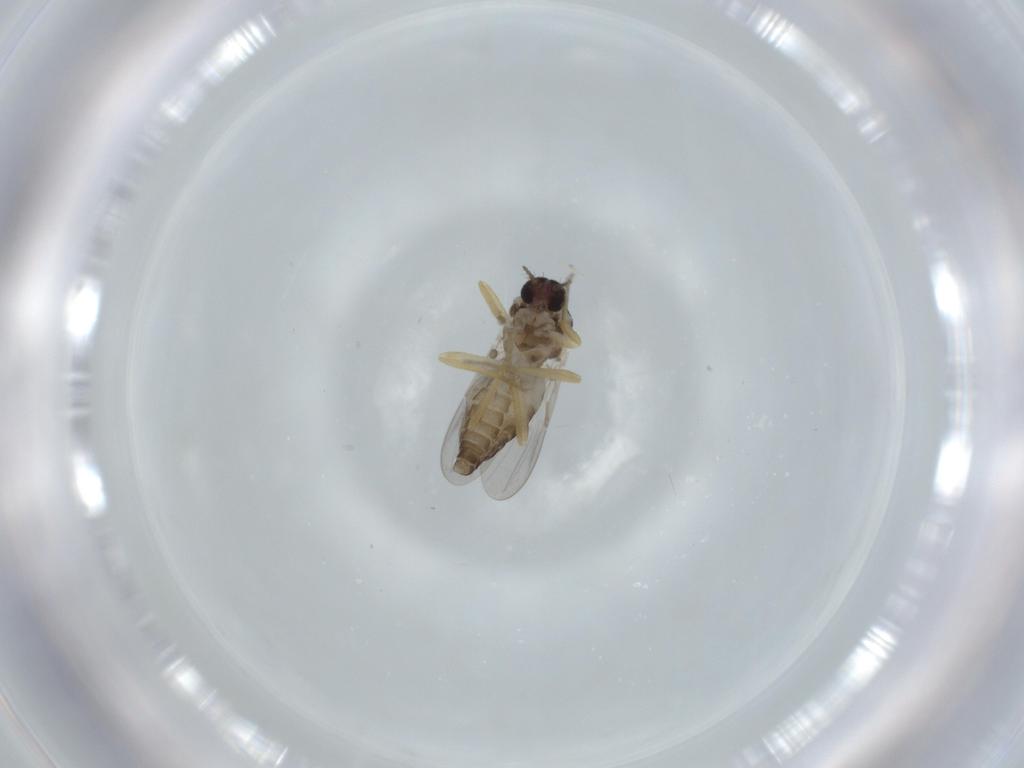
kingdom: Animalia
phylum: Arthropoda
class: Insecta
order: Diptera
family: Ceratopogonidae
